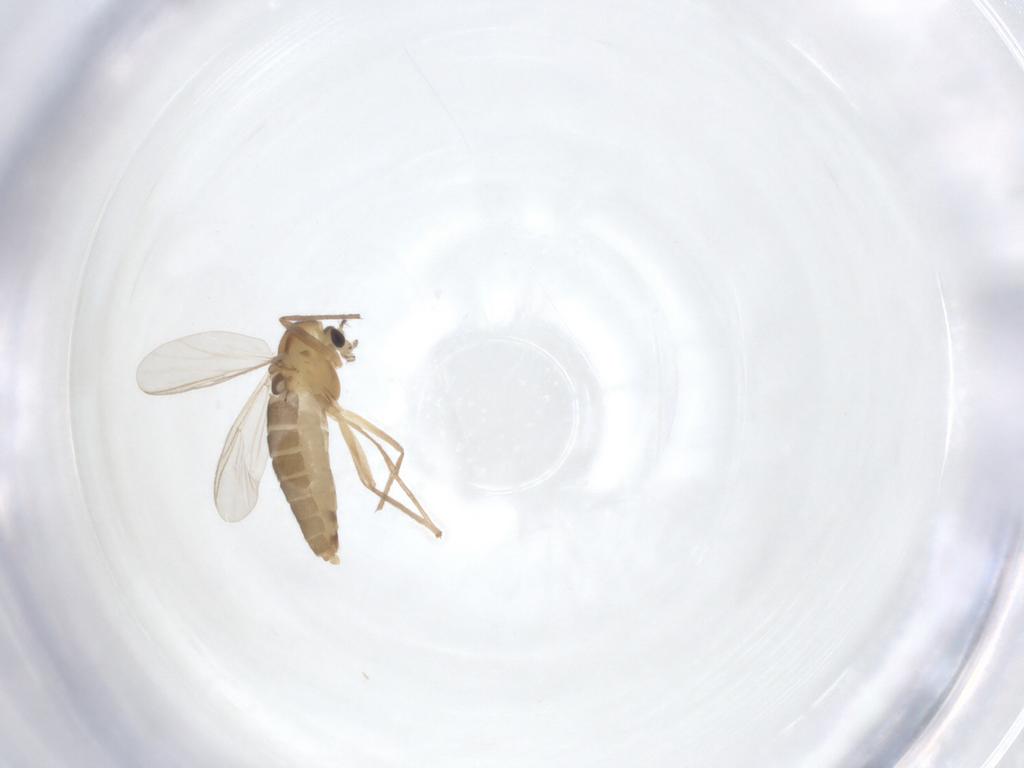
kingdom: Animalia
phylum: Arthropoda
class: Insecta
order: Diptera
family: Chironomidae
